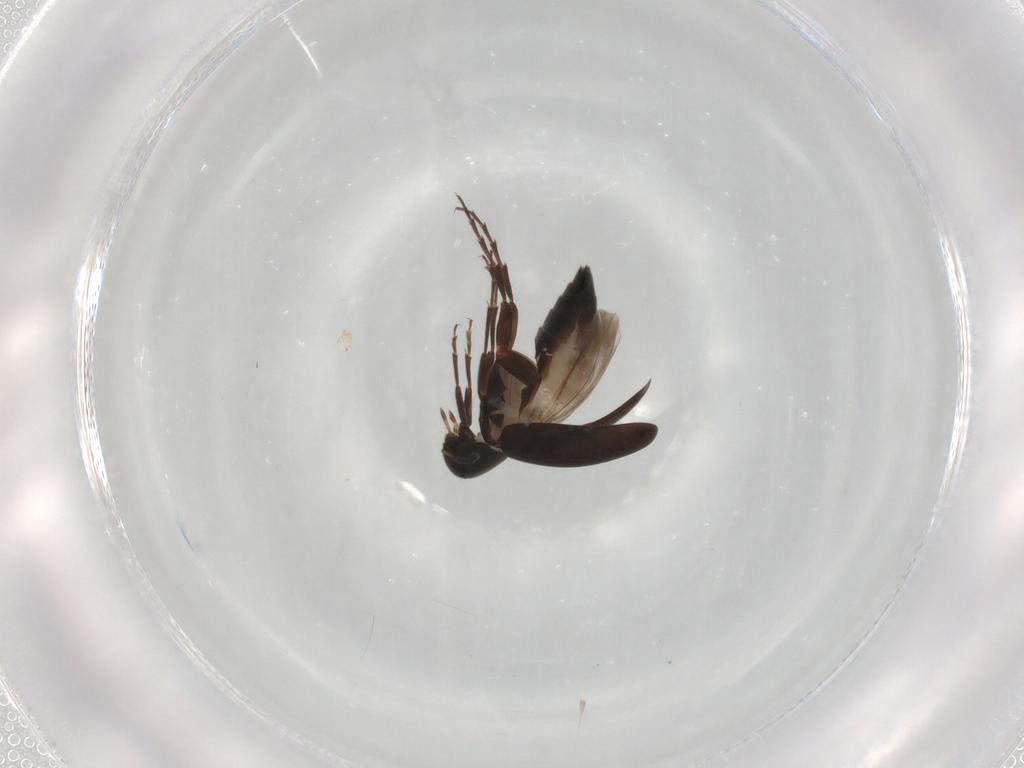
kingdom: Animalia
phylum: Arthropoda
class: Insecta
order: Coleoptera
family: Scraptiidae
